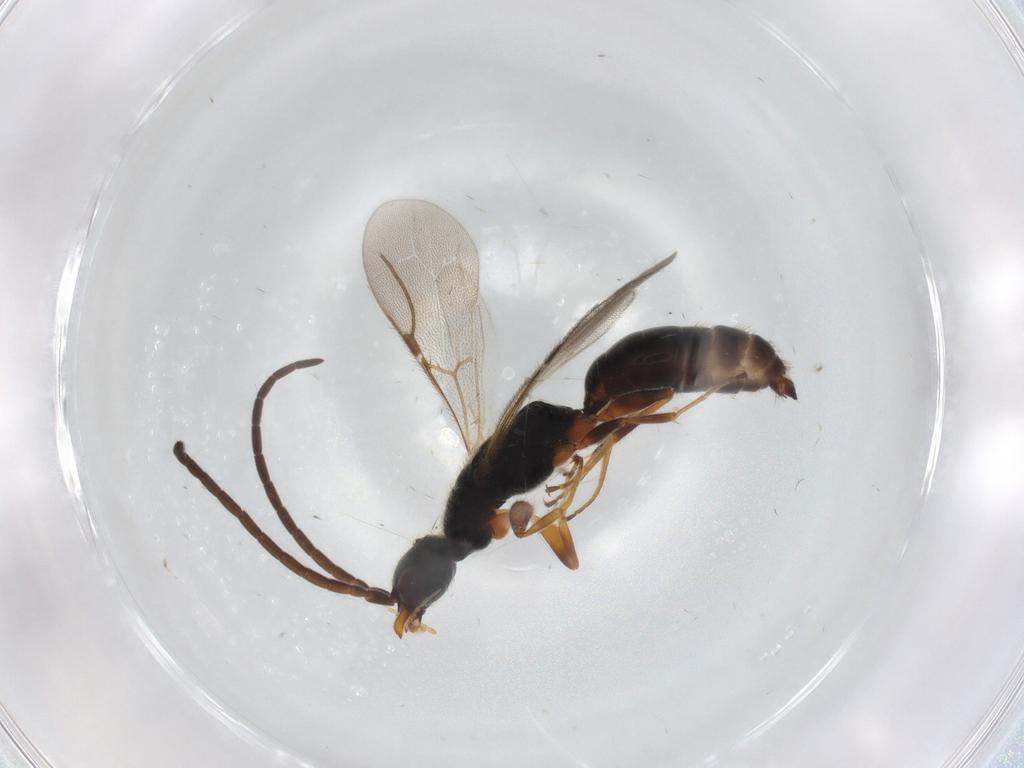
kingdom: Animalia
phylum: Arthropoda
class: Insecta
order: Hymenoptera
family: Bethylidae
